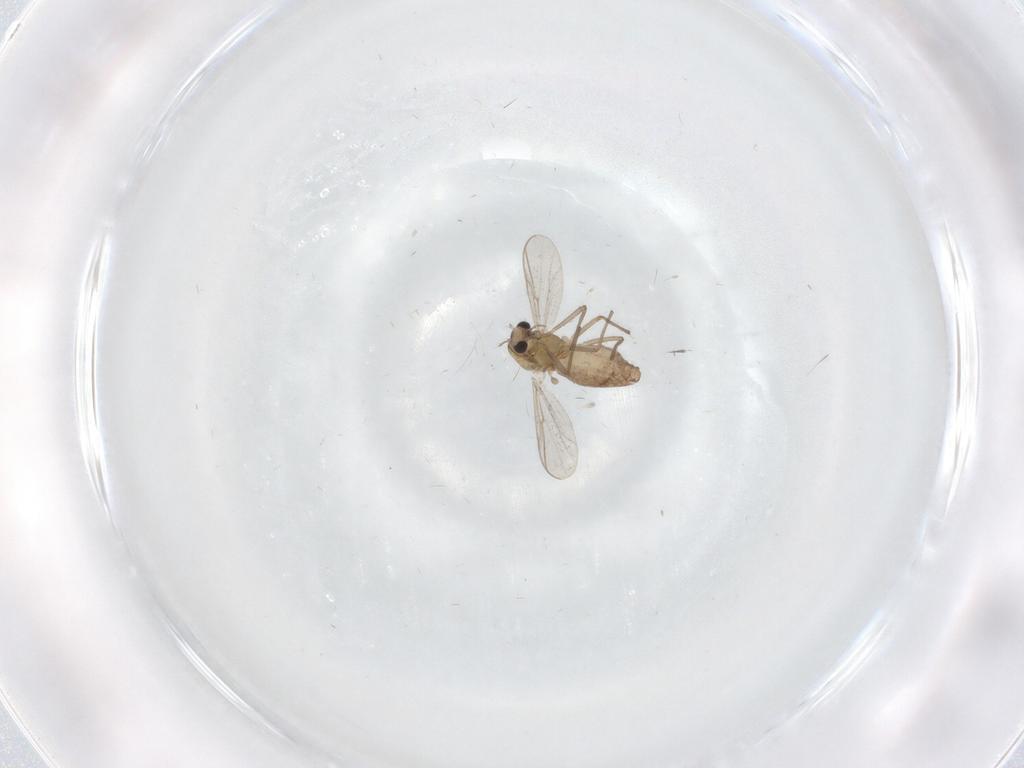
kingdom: Animalia
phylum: Arthropoda
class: Insecta
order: Diptera
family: Chironomidae
